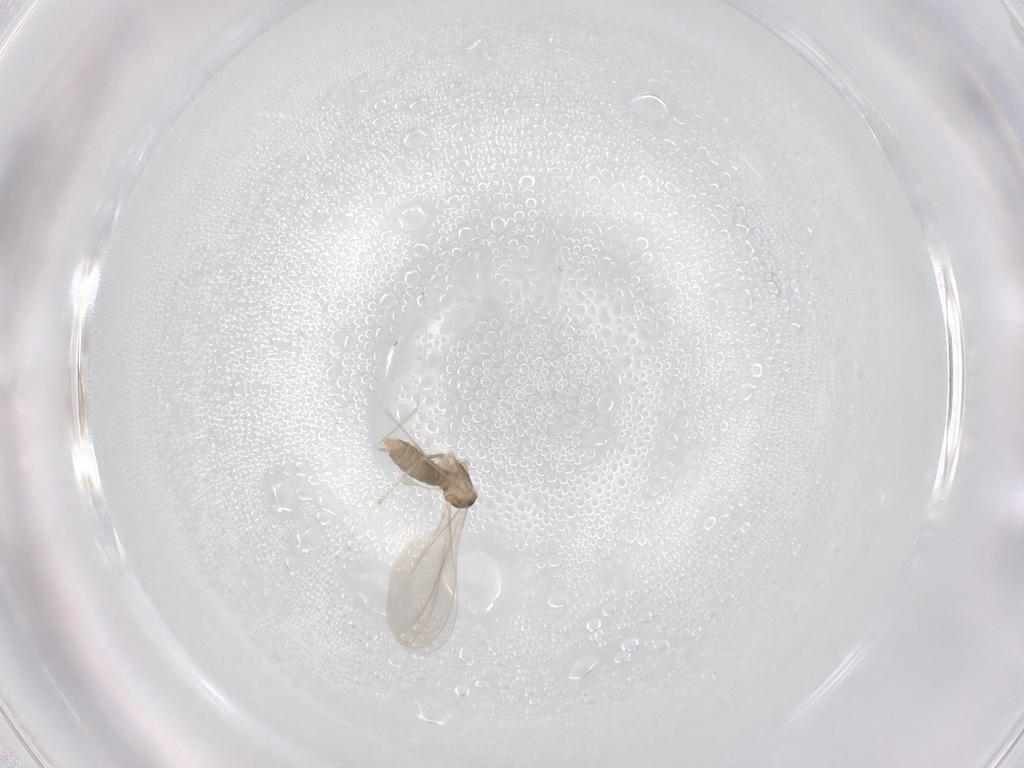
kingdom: Animalia
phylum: Arthropoda
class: Insecta
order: Diptera
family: Cecidomyiidae
